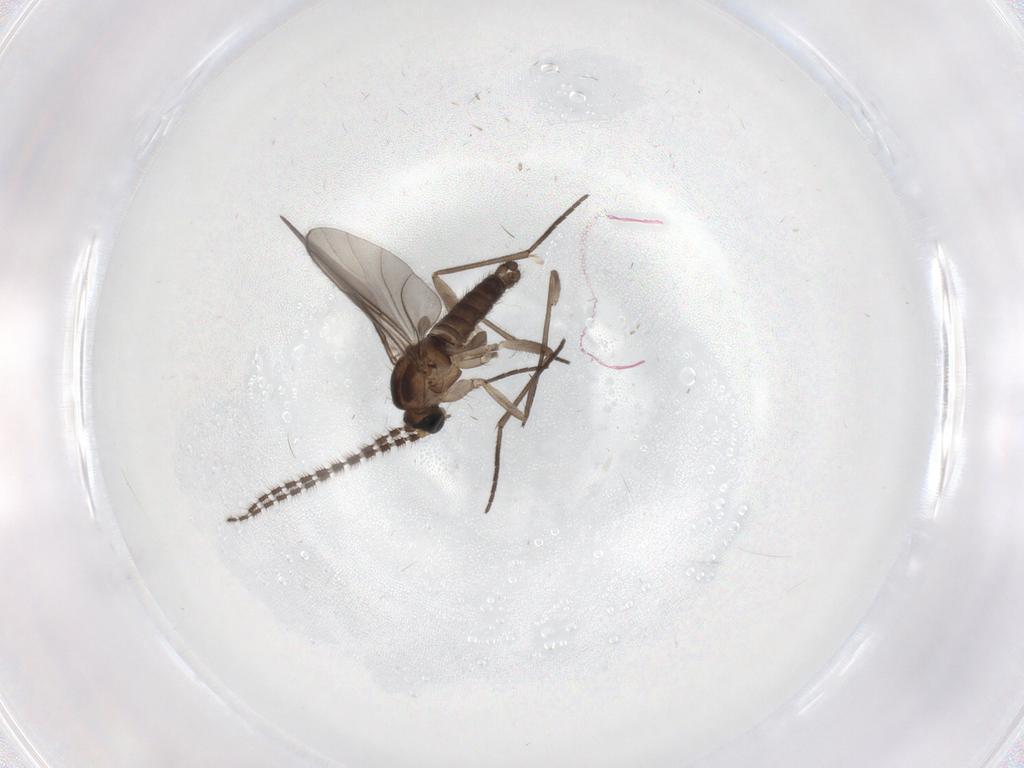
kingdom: Animalia
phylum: Arthropoda
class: Insecta
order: Diptera
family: Sciaridae
